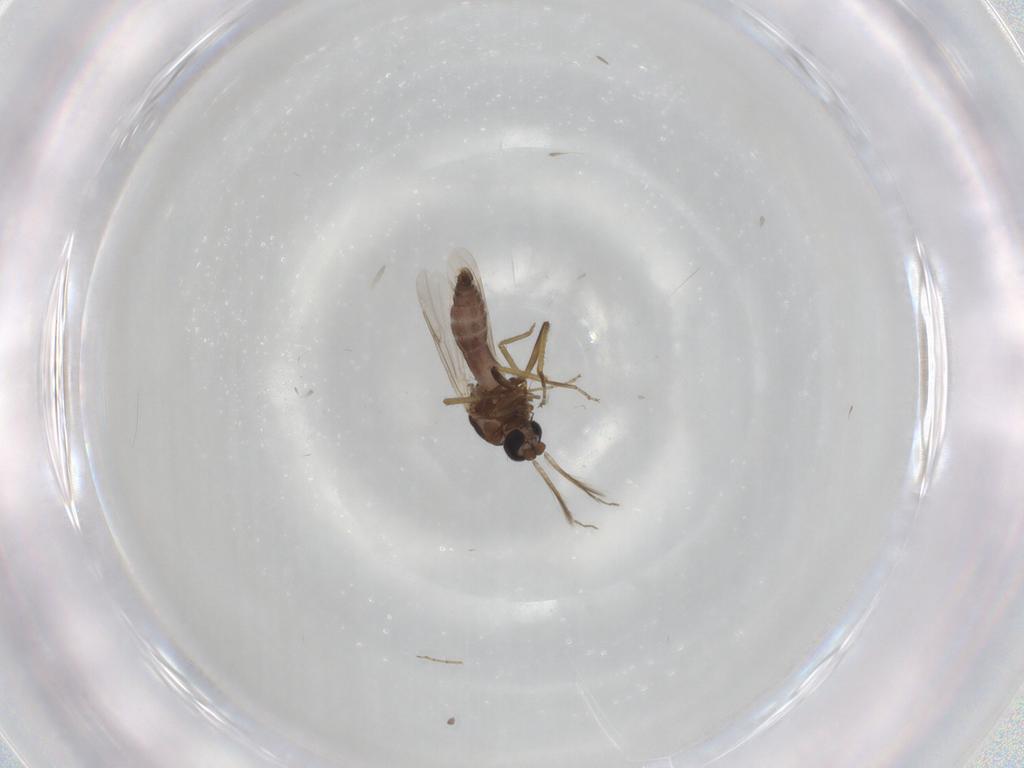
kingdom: Animalia
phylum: Arthropoda
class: Insecta
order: Diptera
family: Ceratopogonidae
